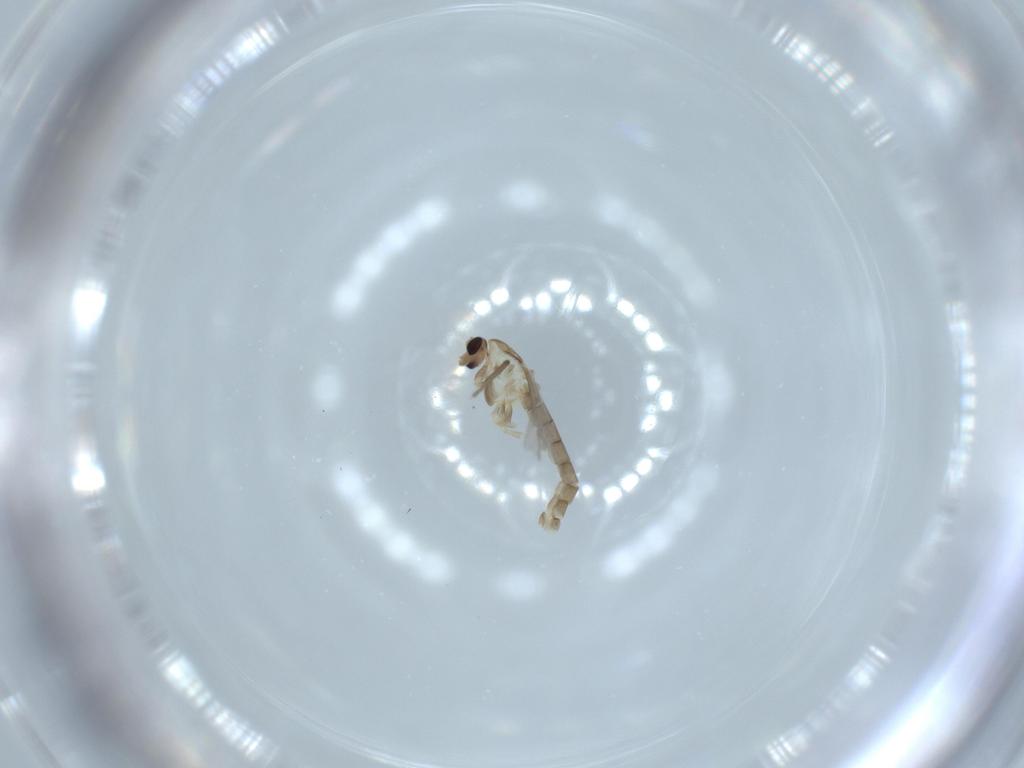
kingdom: Animalia
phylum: Arthropoda
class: Insecta
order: Diptera
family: Chironomidae
